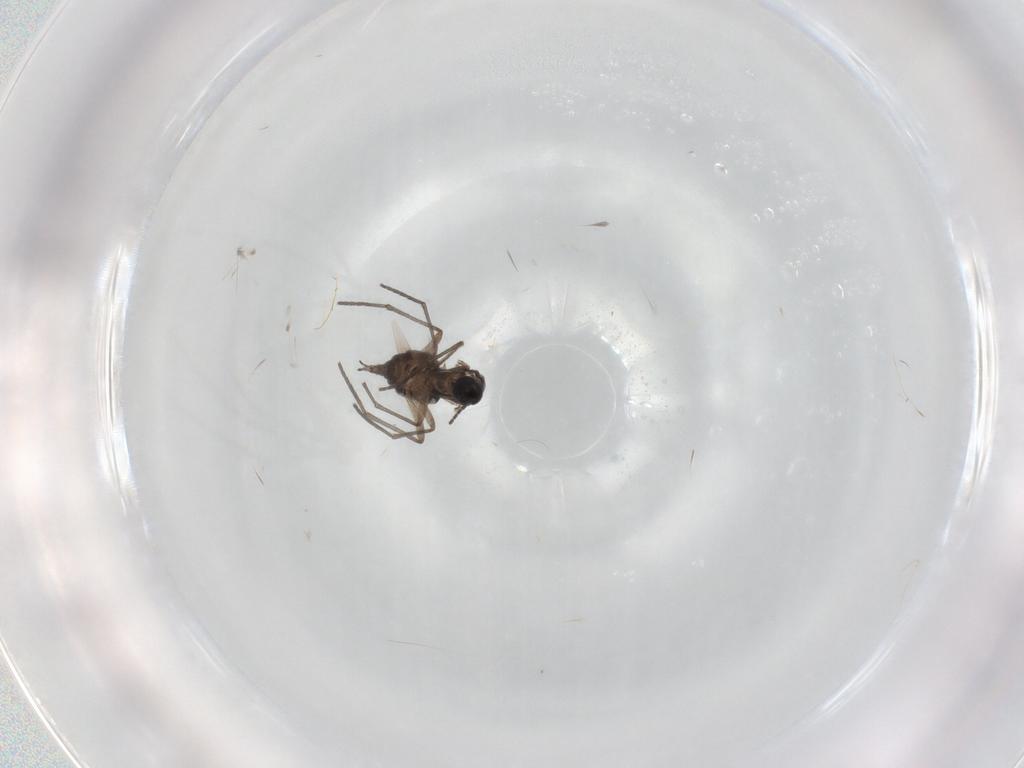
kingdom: Animalia
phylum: Arthropoda
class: Insecta
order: Diptera
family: Sciaridae
